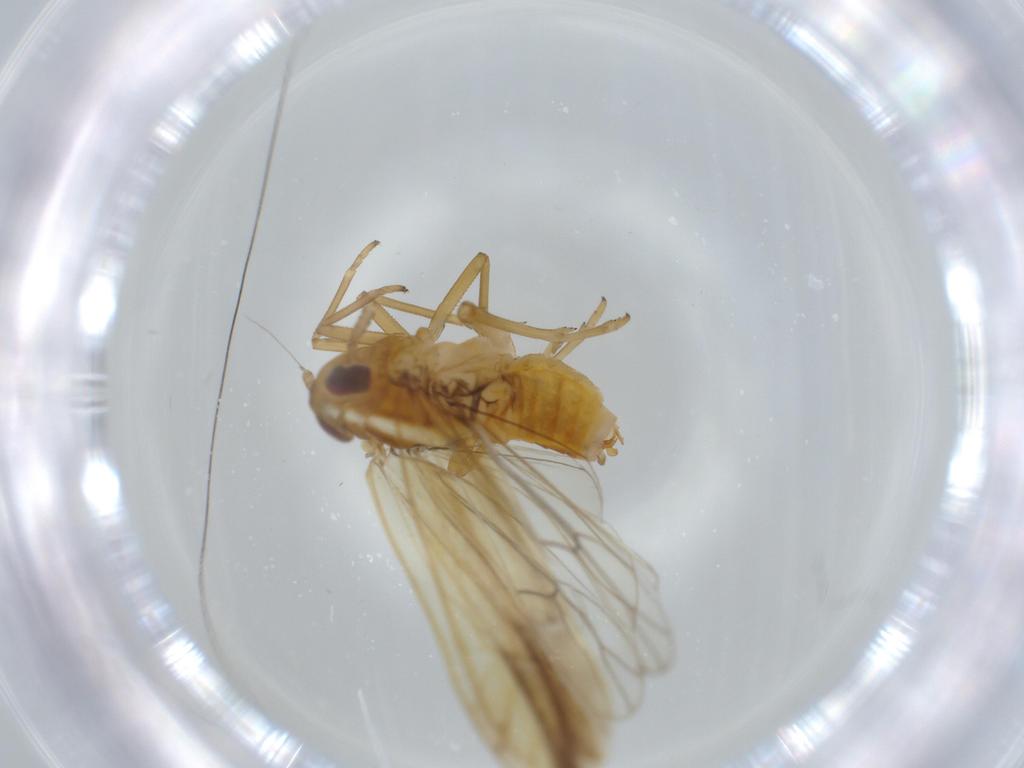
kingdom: Animalia
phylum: Arthropoda
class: Insecta
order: Hemiptera
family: Delphacidae
